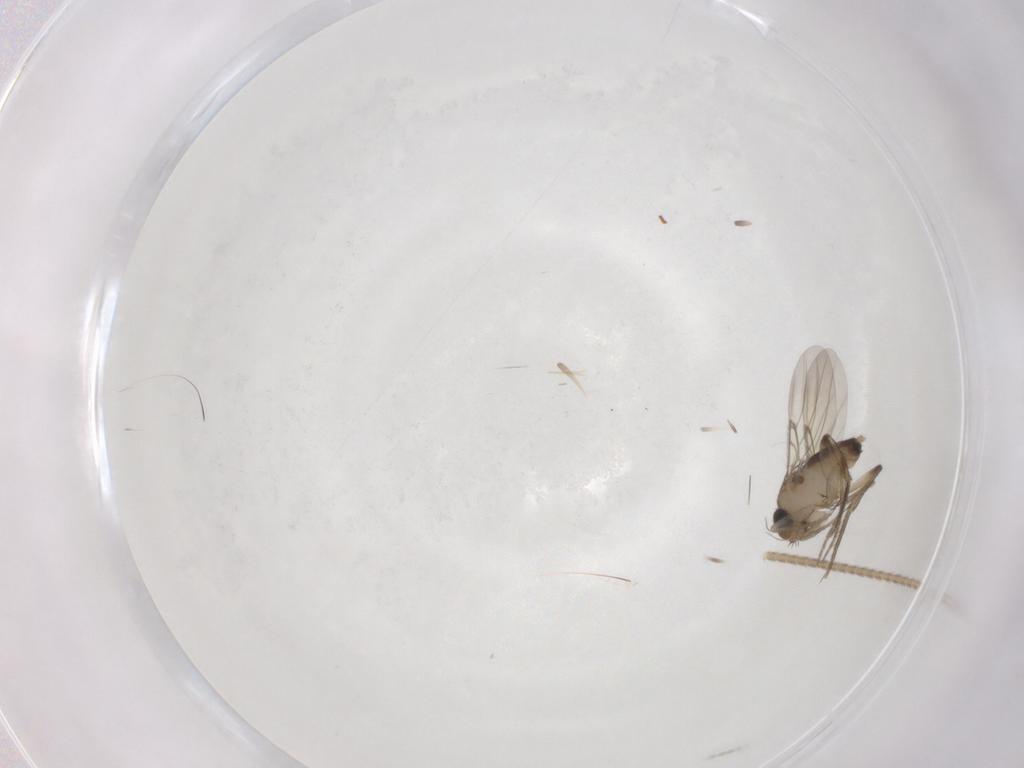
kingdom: Animalia
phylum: Arthropoda
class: Insecta
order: Diptera
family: Phoridae
